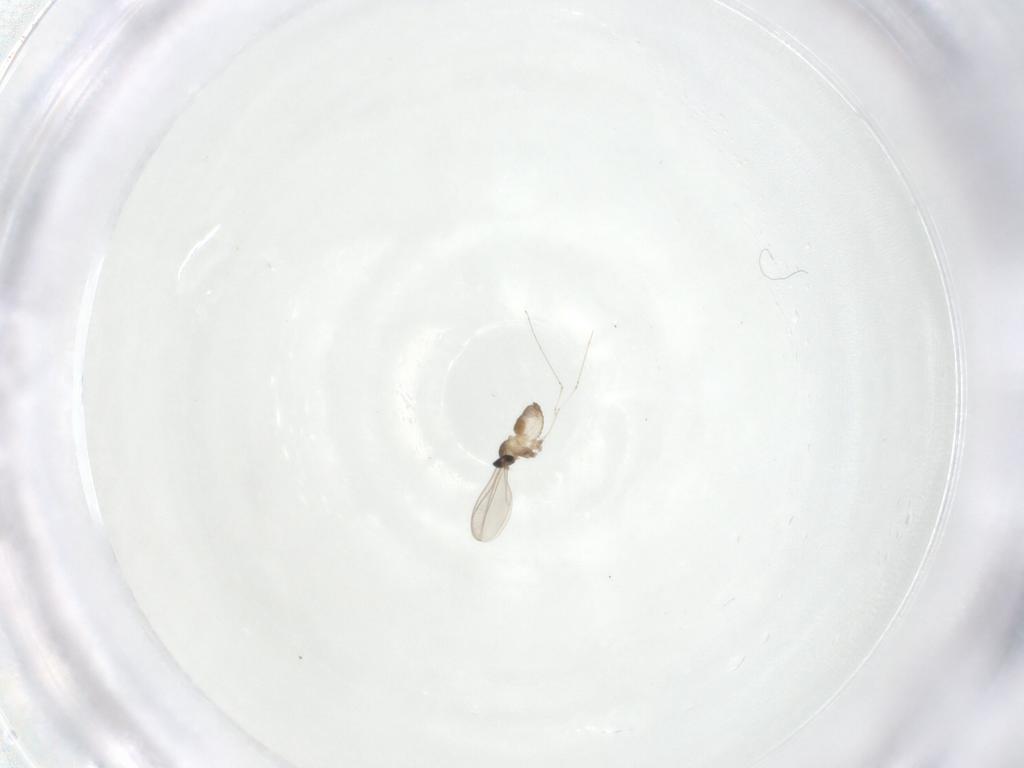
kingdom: Animalia
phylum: Arthropoda
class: Insecta
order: Diptera
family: Cecidomyiidae
